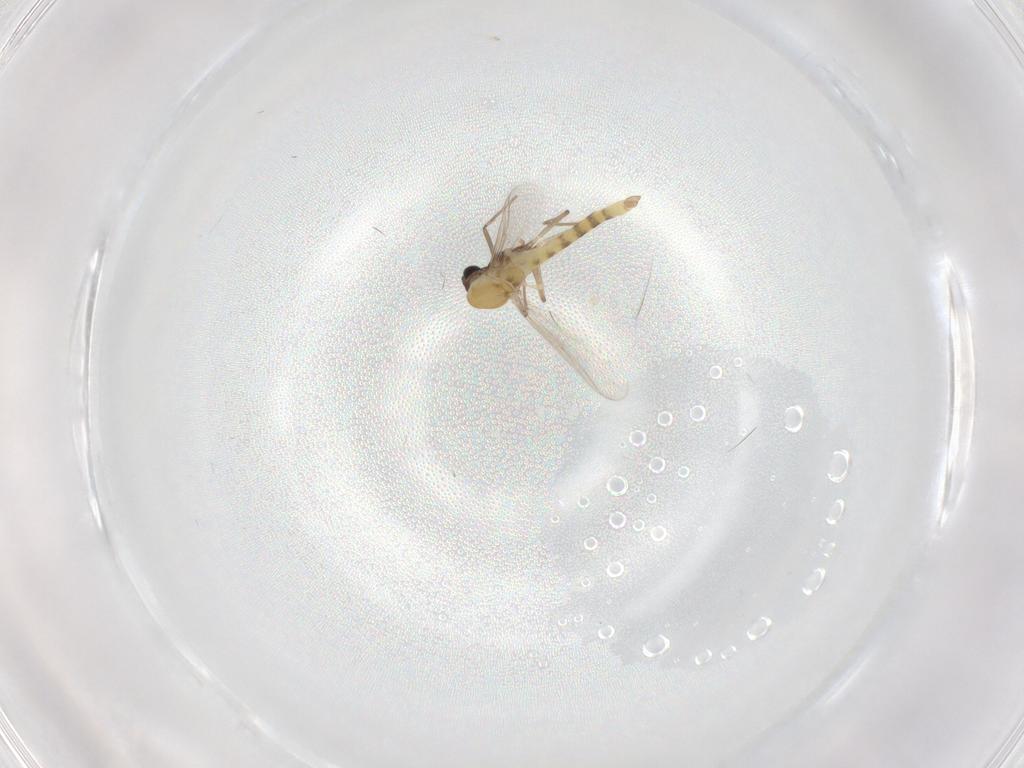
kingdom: Animalia
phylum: Arthropoda
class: Insecta
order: Diptera
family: Chironomidae
